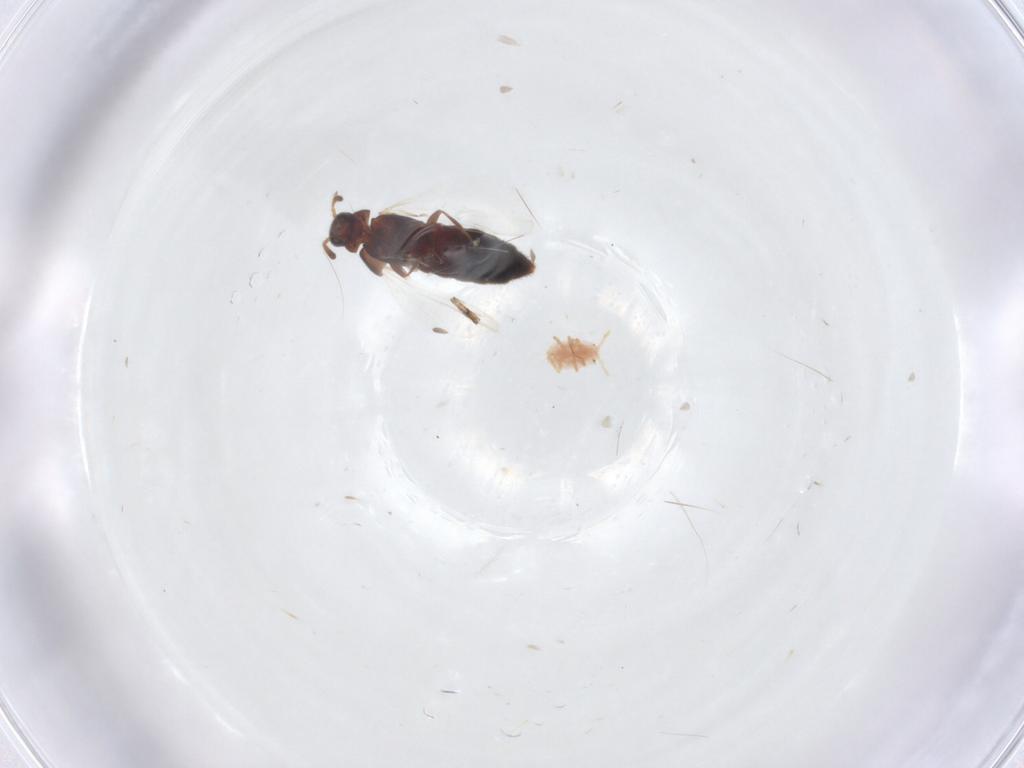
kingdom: Animalia
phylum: Arthropoda
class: Insecta
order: Coleoptera
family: Staphylinidae
